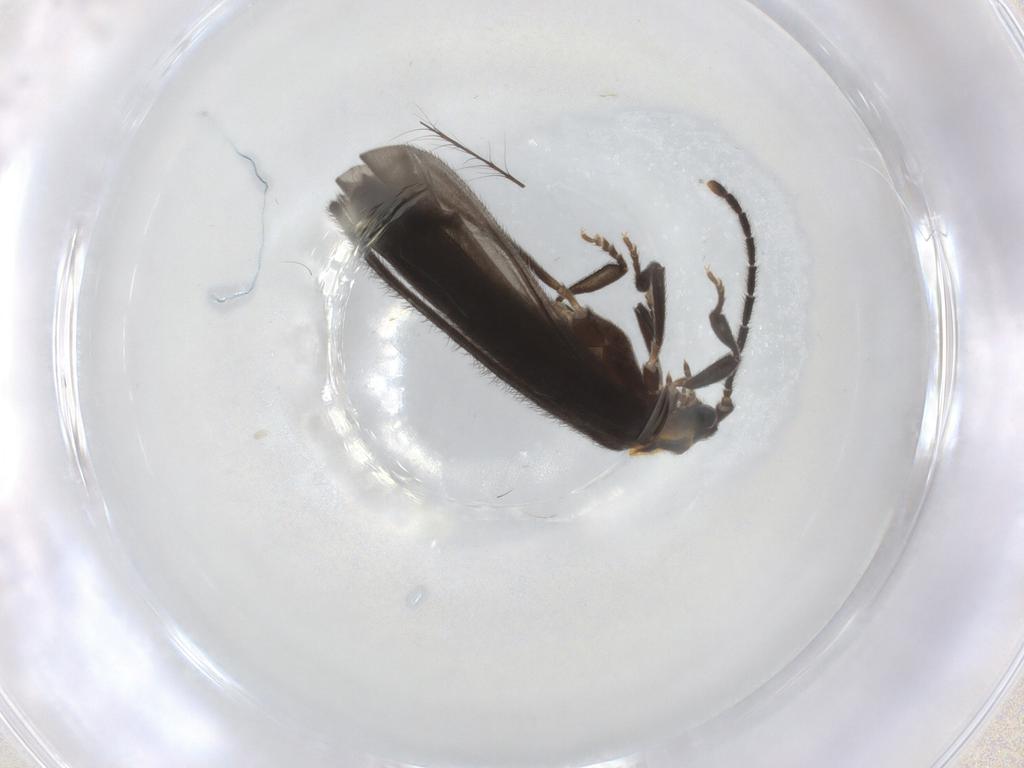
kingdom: Animalia
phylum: Arthropoda
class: Insecta
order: Coleoptera
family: Lycidae
